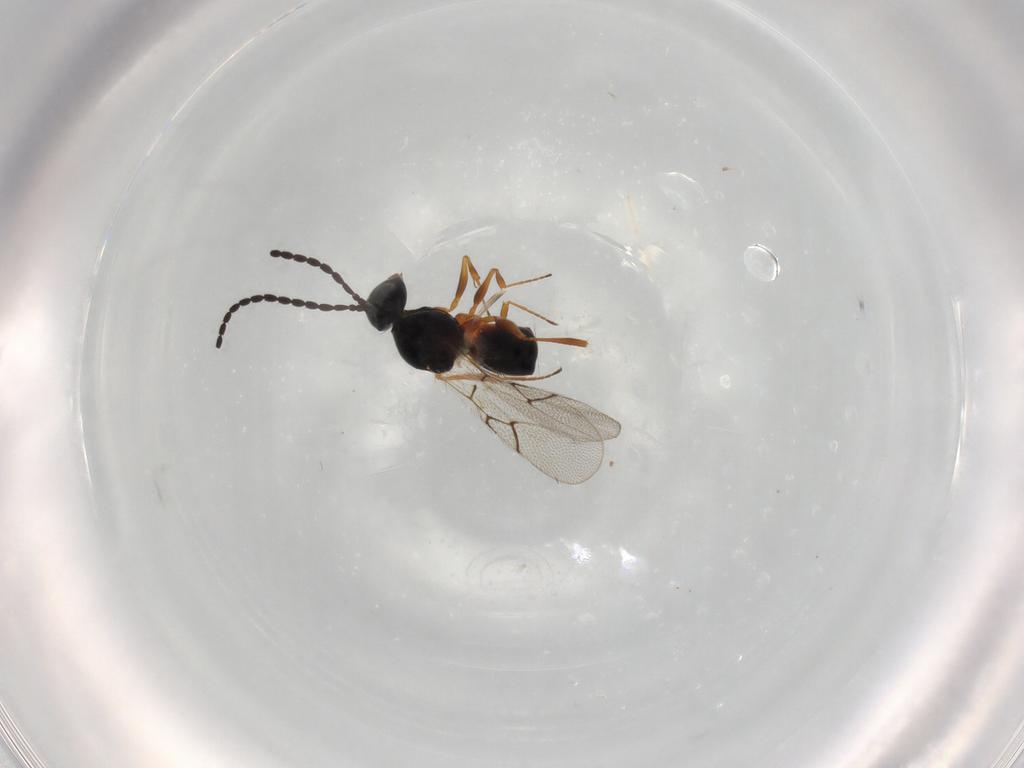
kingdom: Animalia
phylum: Arthropoda
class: Insecta
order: Hymenoptera
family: Figitidae
